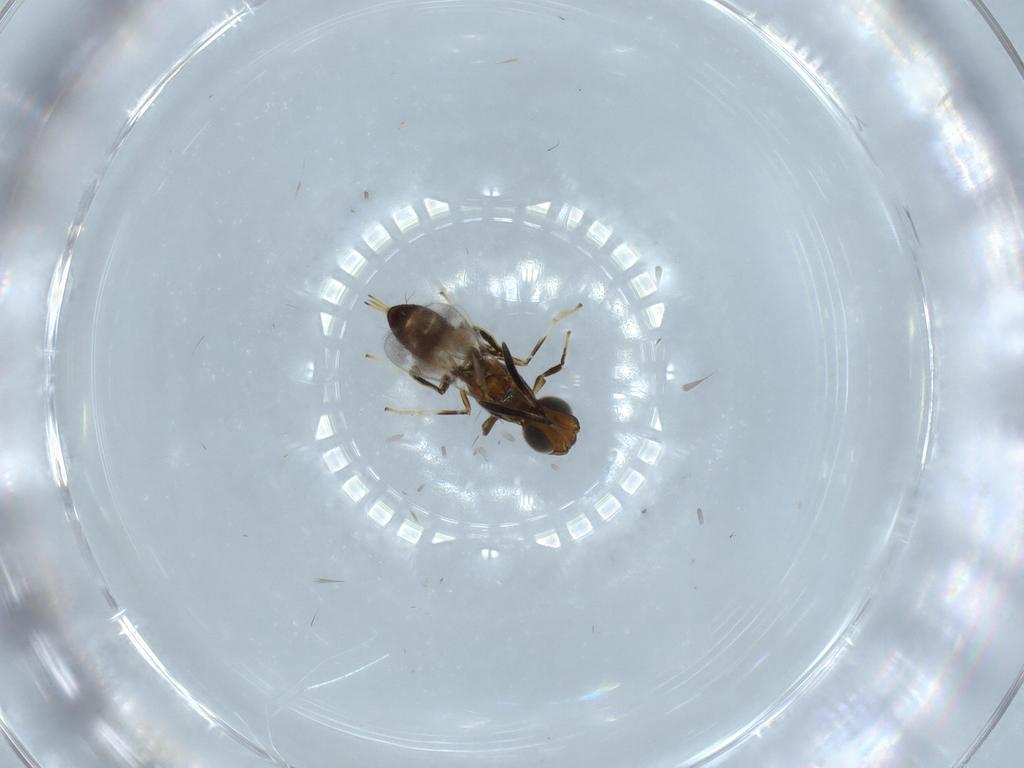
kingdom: Animalia
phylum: Arthropoda
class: Insecta
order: Hymenoptera
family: Eupelmidae
